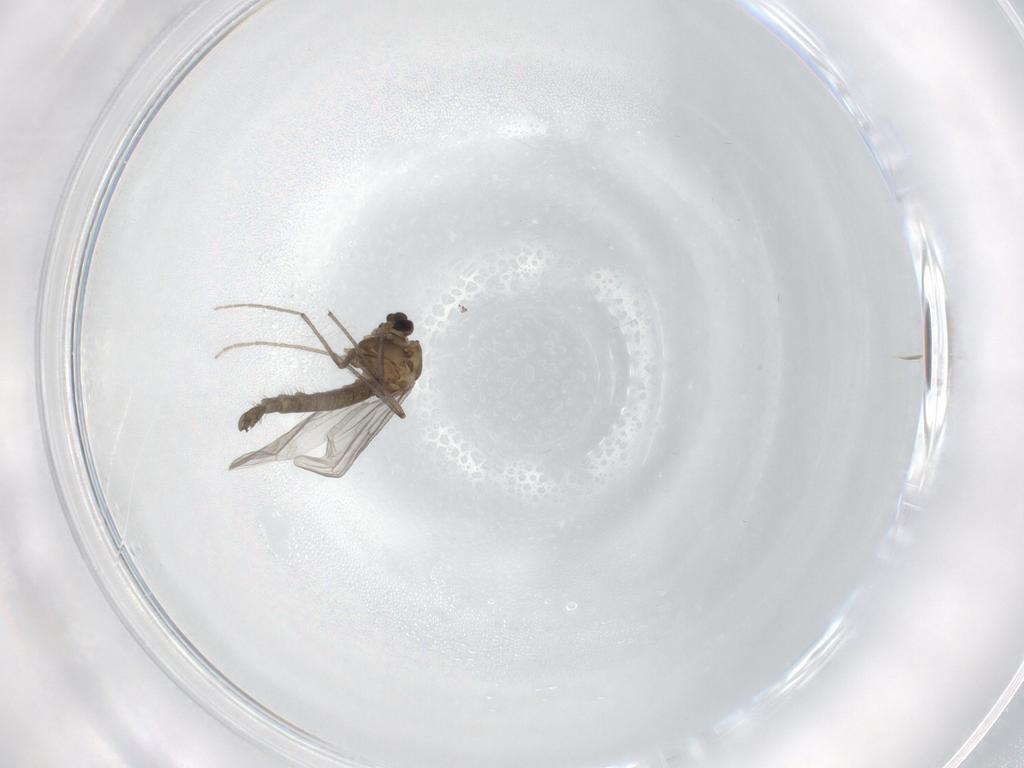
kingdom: Animalia
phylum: Arthropoda
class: Insecta
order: Diptera
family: Chironomidae
